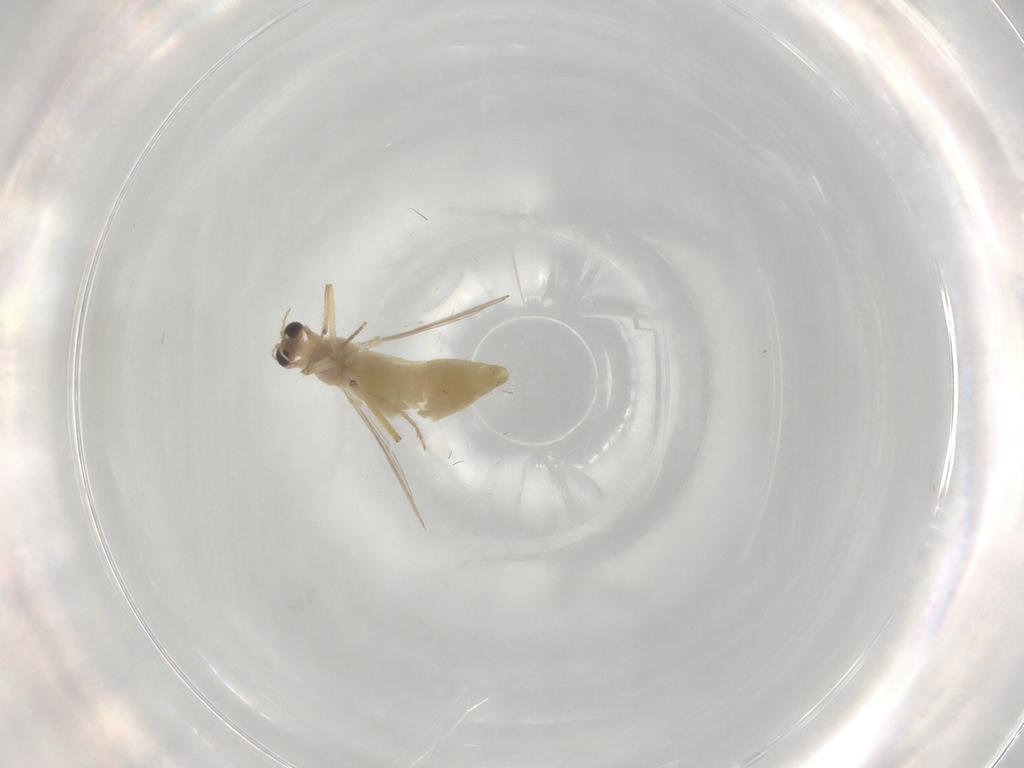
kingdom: Animalia
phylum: Arthropoda
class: Insecta
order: Diptera
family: Chironomidae
